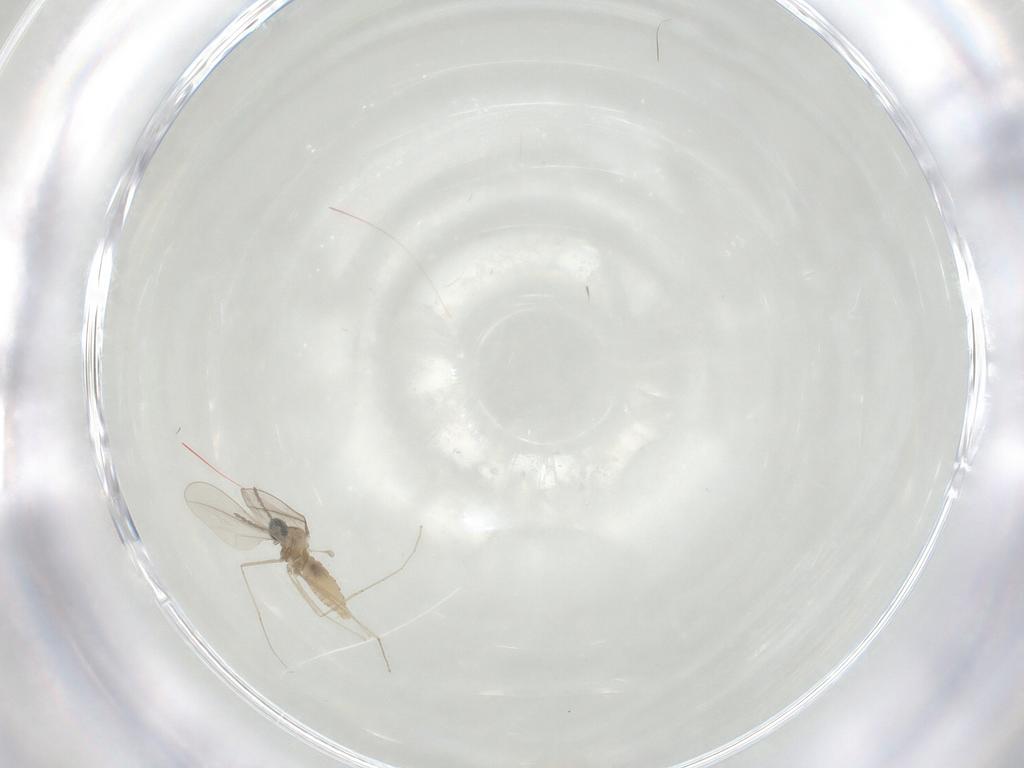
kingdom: Animalia
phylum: Arthropoda
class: Insecta
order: Diptera
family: Cecidomyiidae
